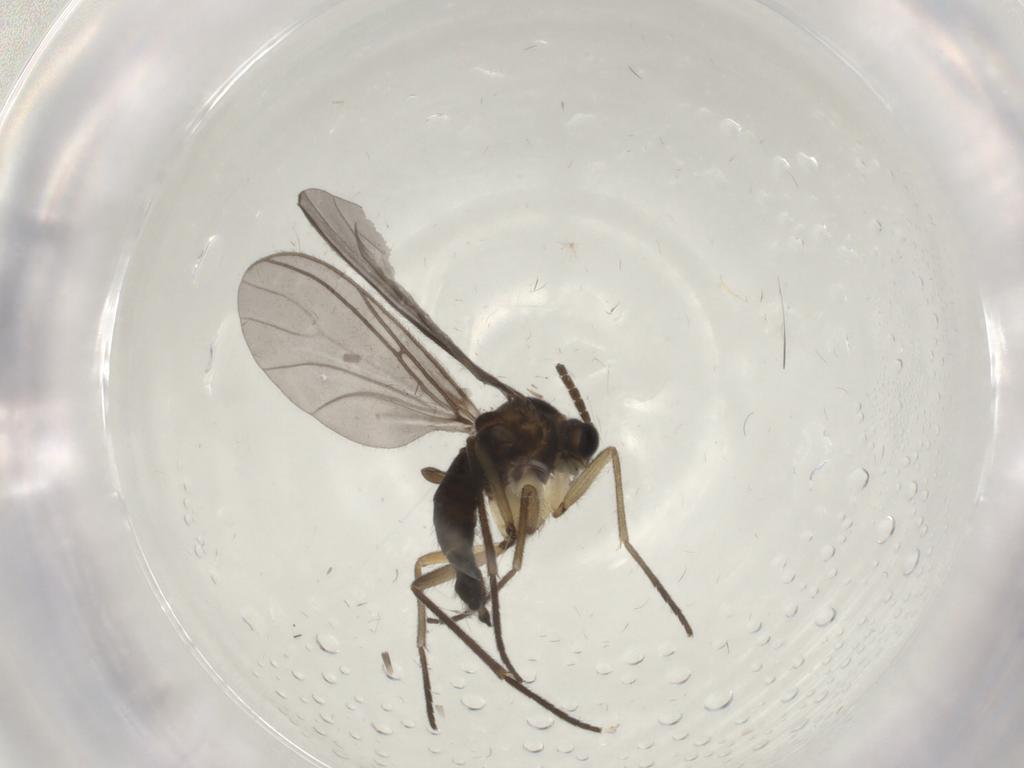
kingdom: Animalia
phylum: Arthropoda
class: Insecta
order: Diptera
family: Sciaridae
